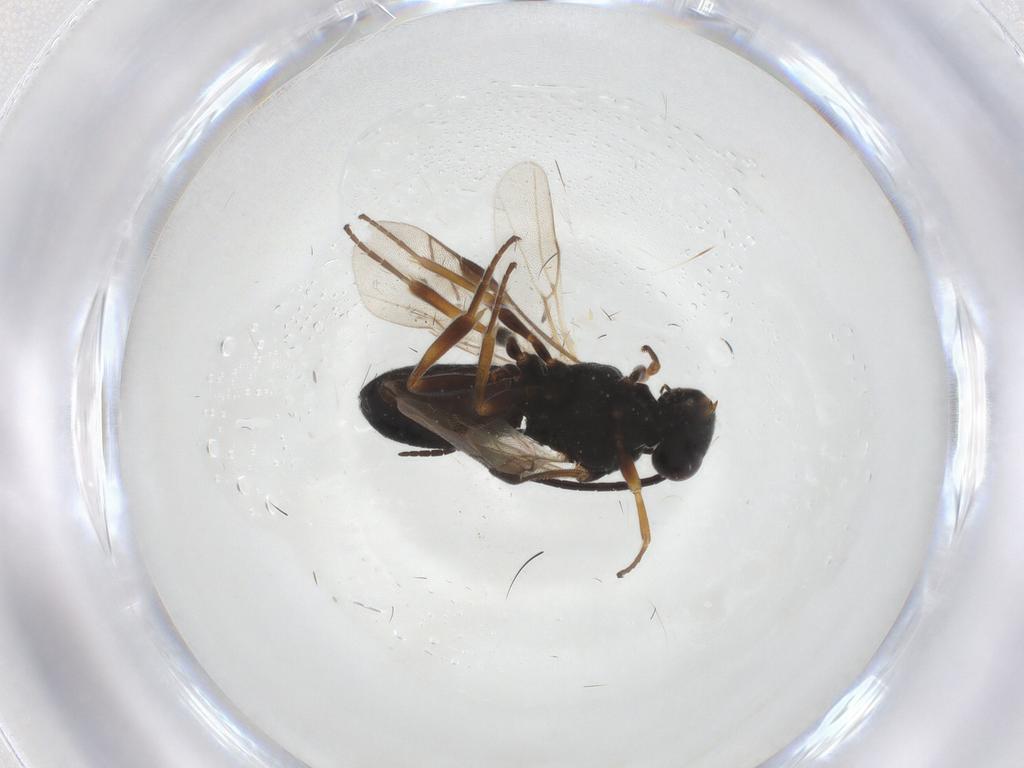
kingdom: Animalia
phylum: Arthropoda
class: Insecta
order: Hymenoptera
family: Braconidae
